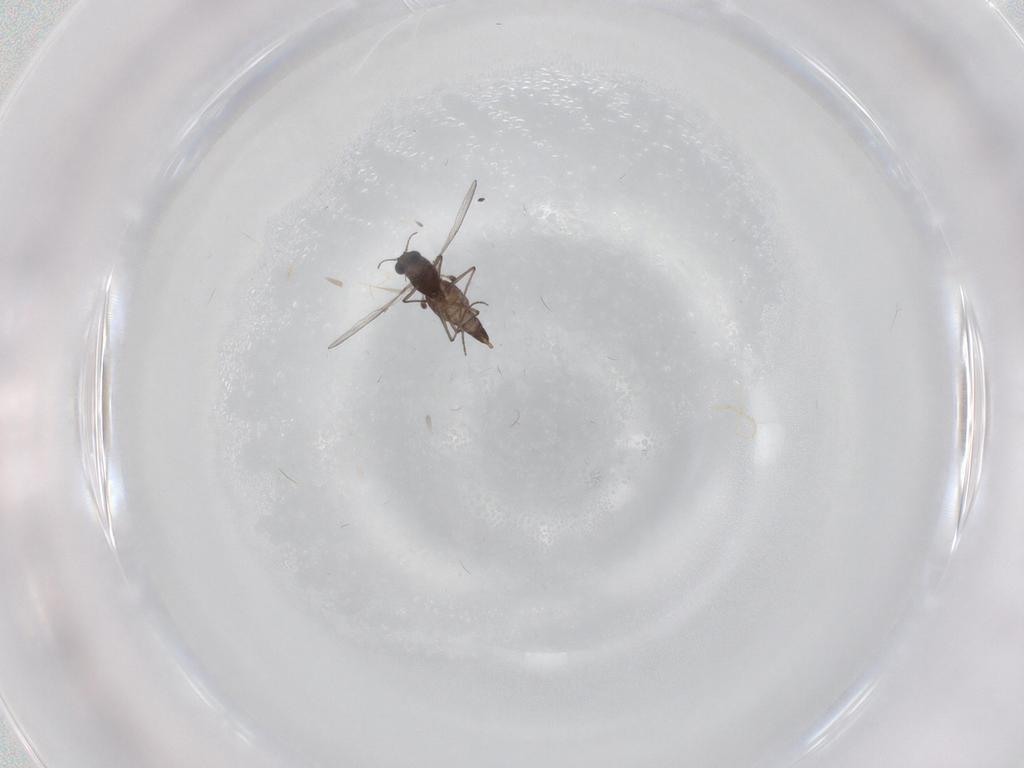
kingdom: Animalia
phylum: Arthropoda
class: Insecta
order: Diptera
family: Chironomidae
